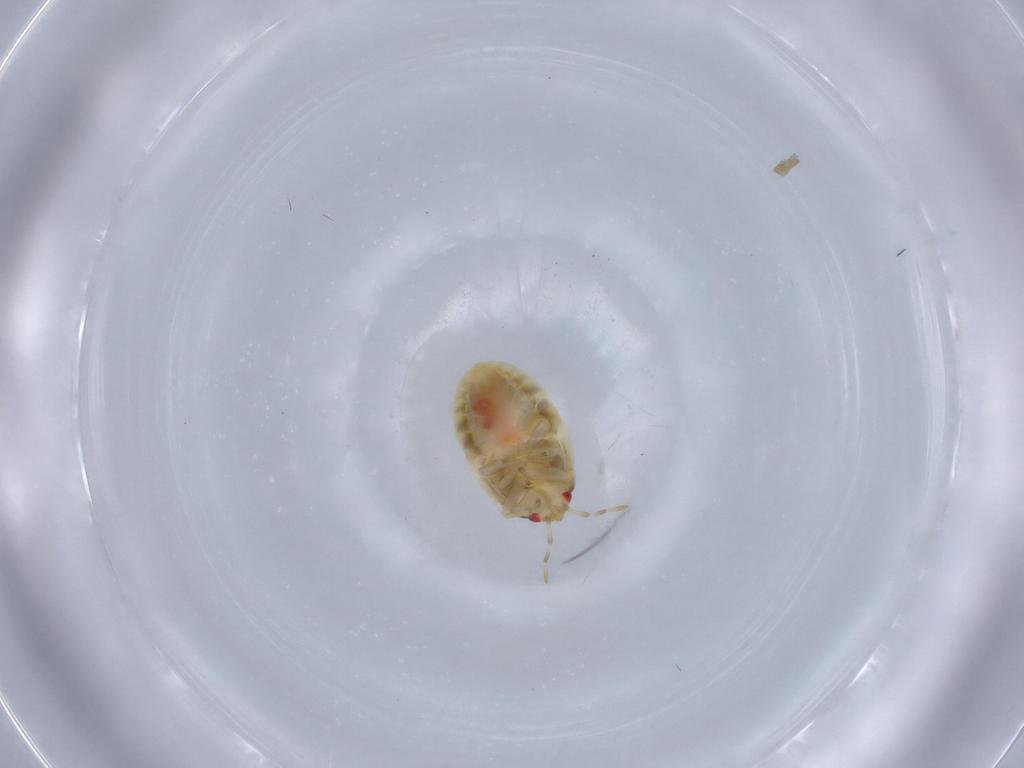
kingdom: Animalia
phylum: Arthropoda
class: Insecta
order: Hemiptera
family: Anthocoridae
